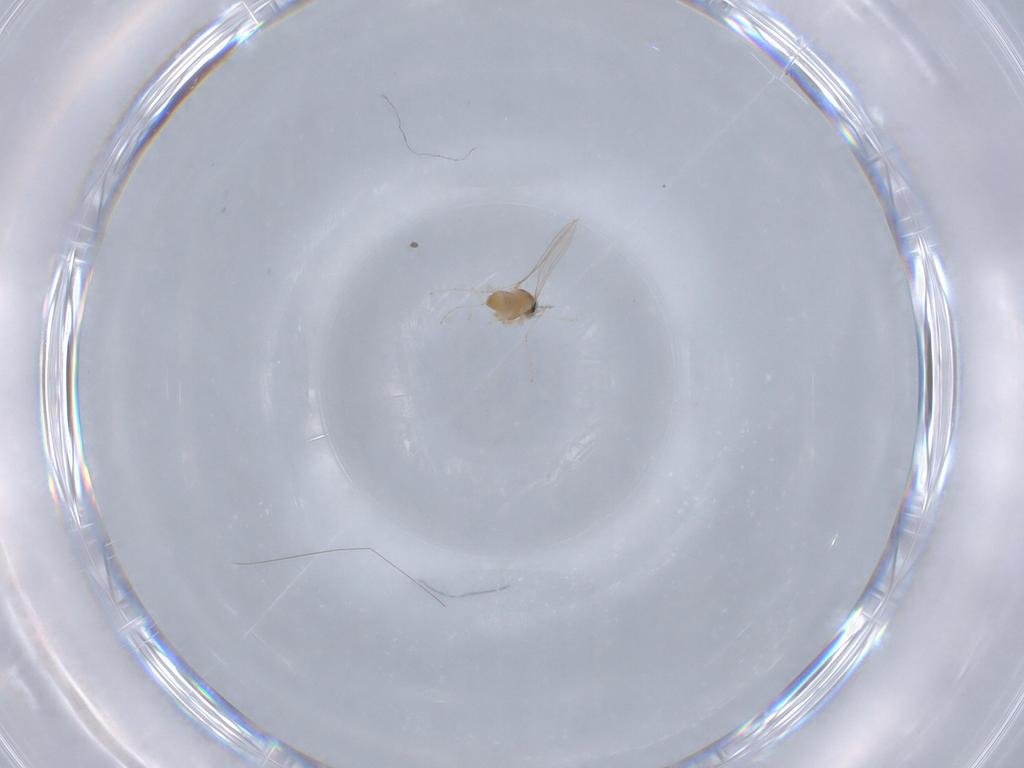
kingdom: Animalia
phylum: Arthropoda
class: Insecta
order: Diptera
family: Cecidomyiidae
